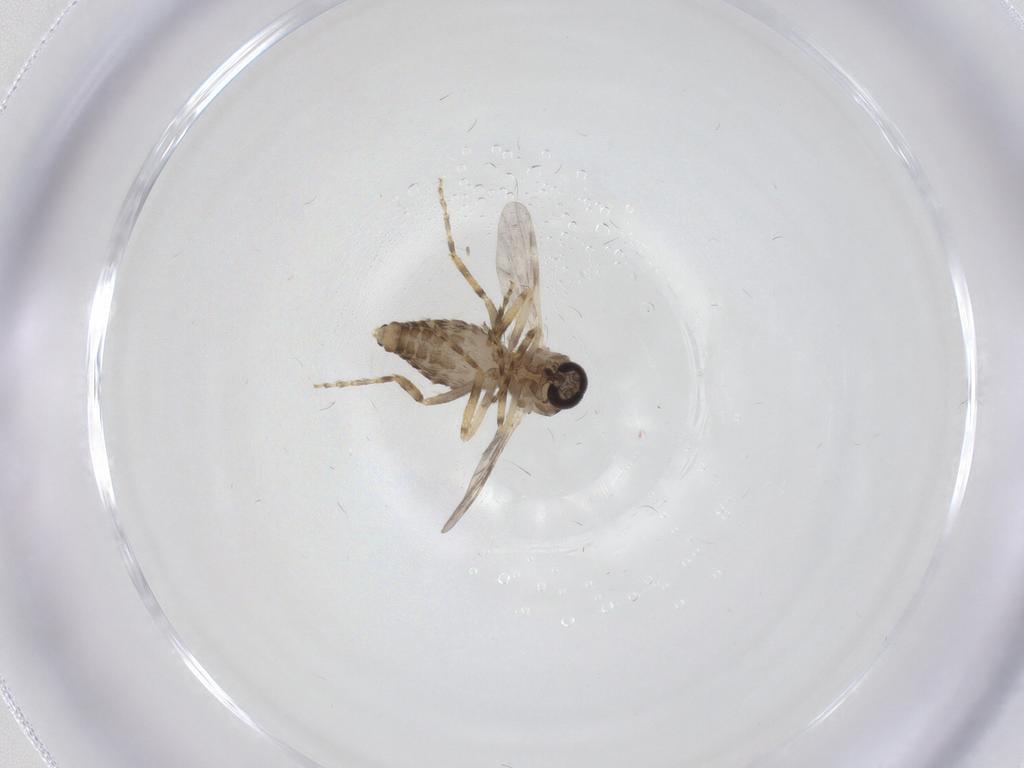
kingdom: Animalia
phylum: Arthropoda
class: Insecta
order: Diptera
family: Ceratopogonidae
